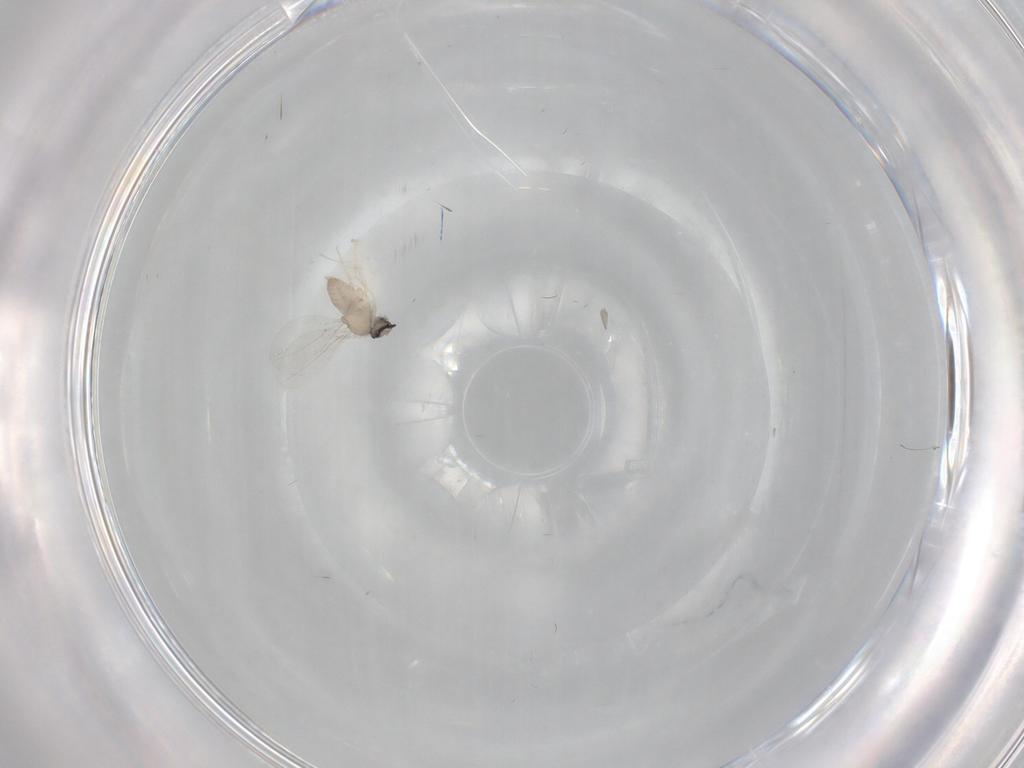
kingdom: Animalia
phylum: Arthropoda
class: Insecta
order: Diptera
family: Cecidomyiidae
